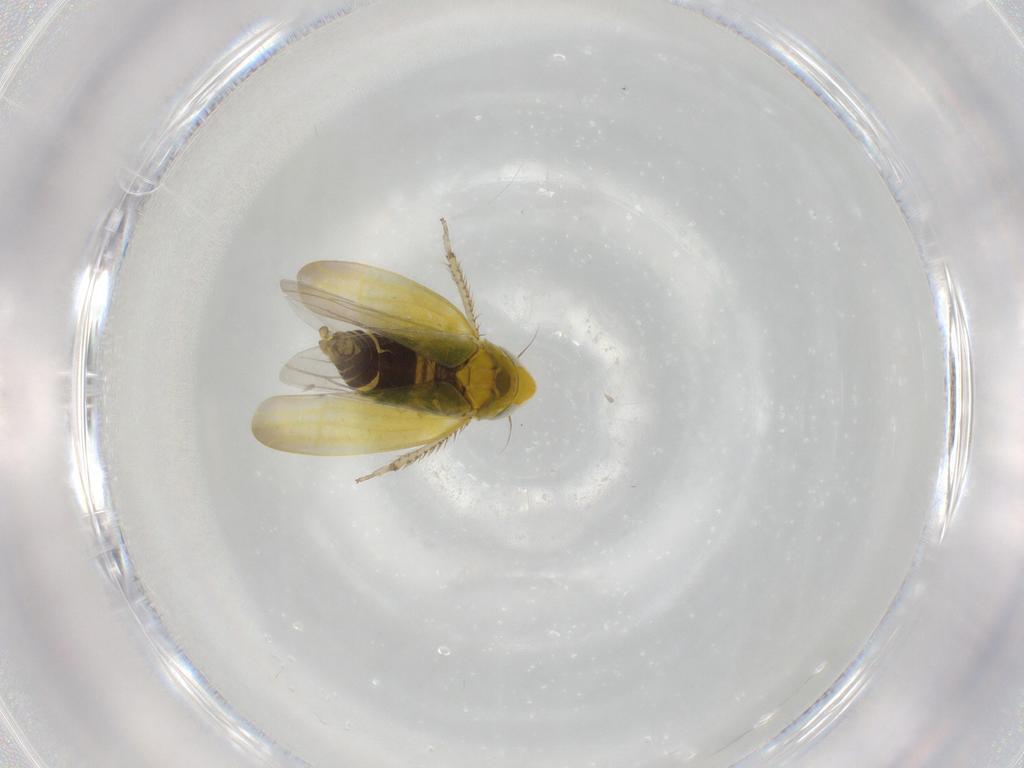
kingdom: Animalia
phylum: Arthropoda
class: Insecta
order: Hemiptera
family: Cicadellidae
